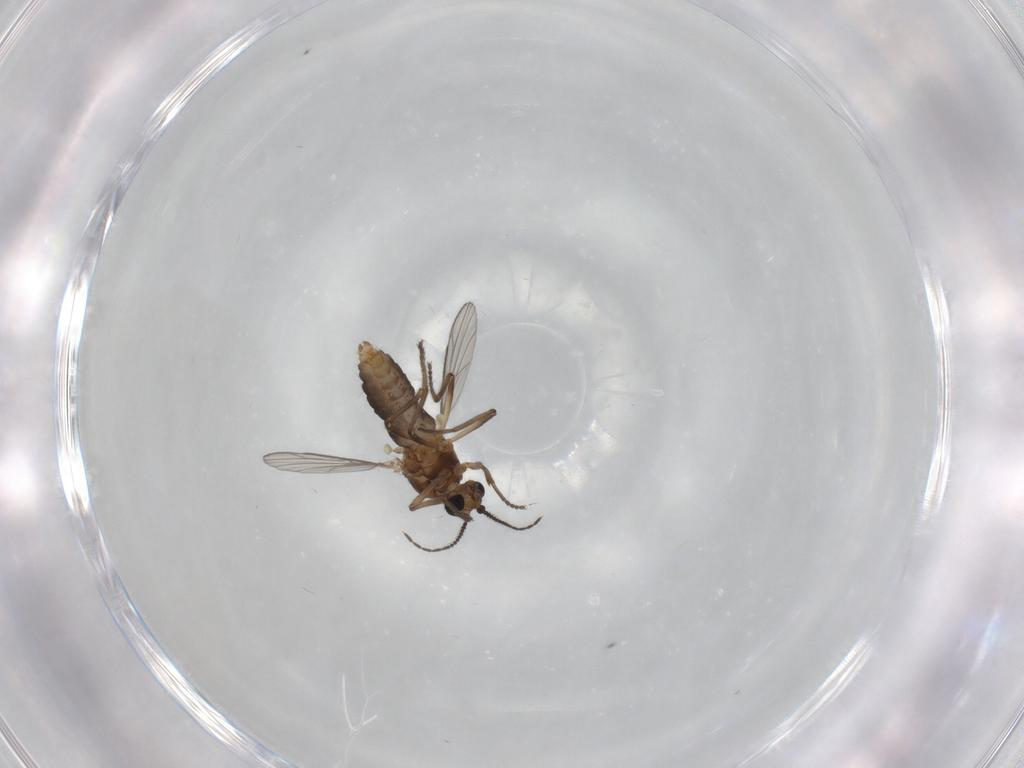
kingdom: Animalia
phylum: Arthropoda
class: Insecta
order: Diptera
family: Ceratopogonidae
